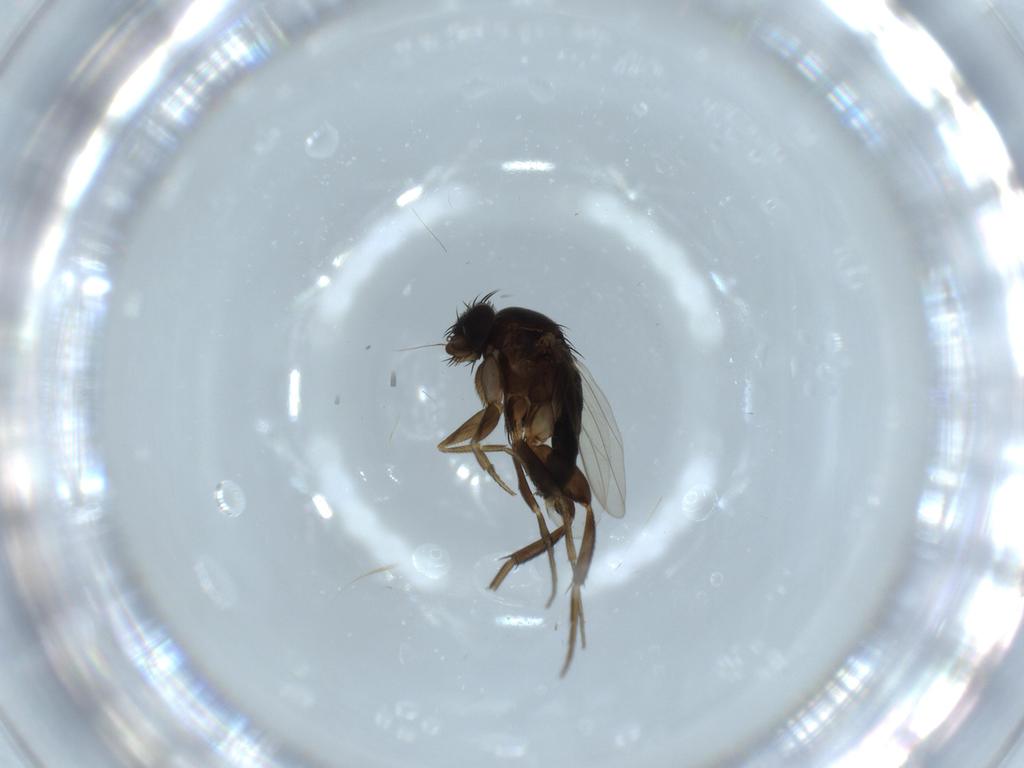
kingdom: Animalia
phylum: Arthropoda
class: Insecta
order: Diptera
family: Phoridae
